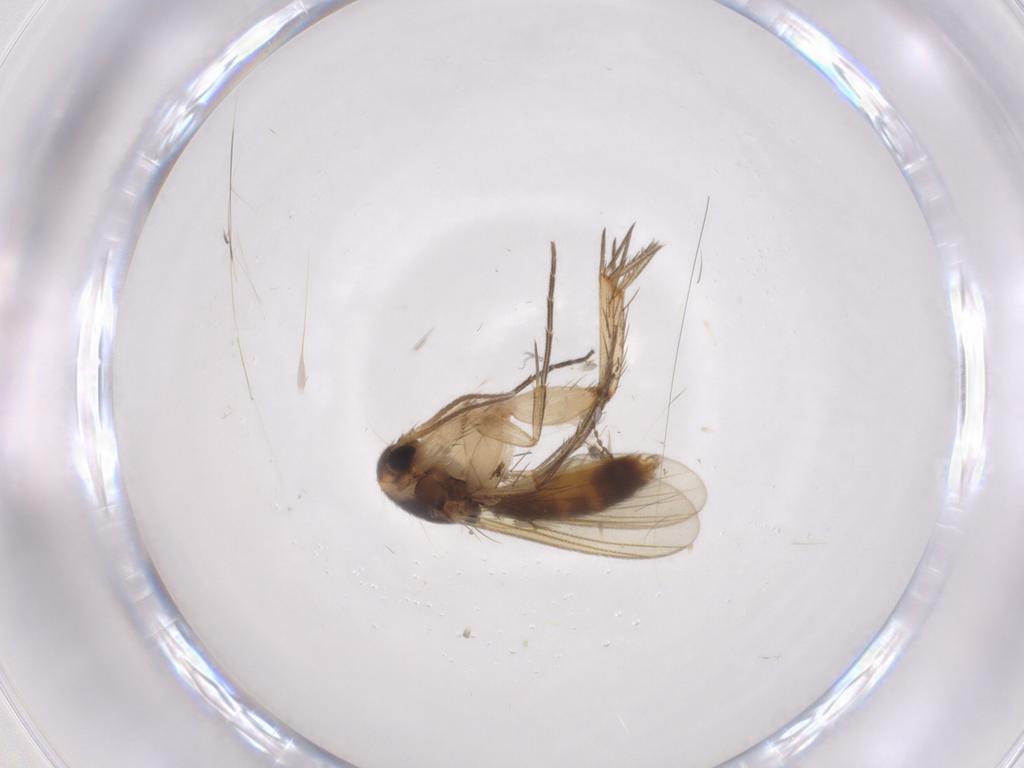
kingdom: Animalia
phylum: Arthropoda
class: Insecta
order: Diptera
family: Mycetophilidae
